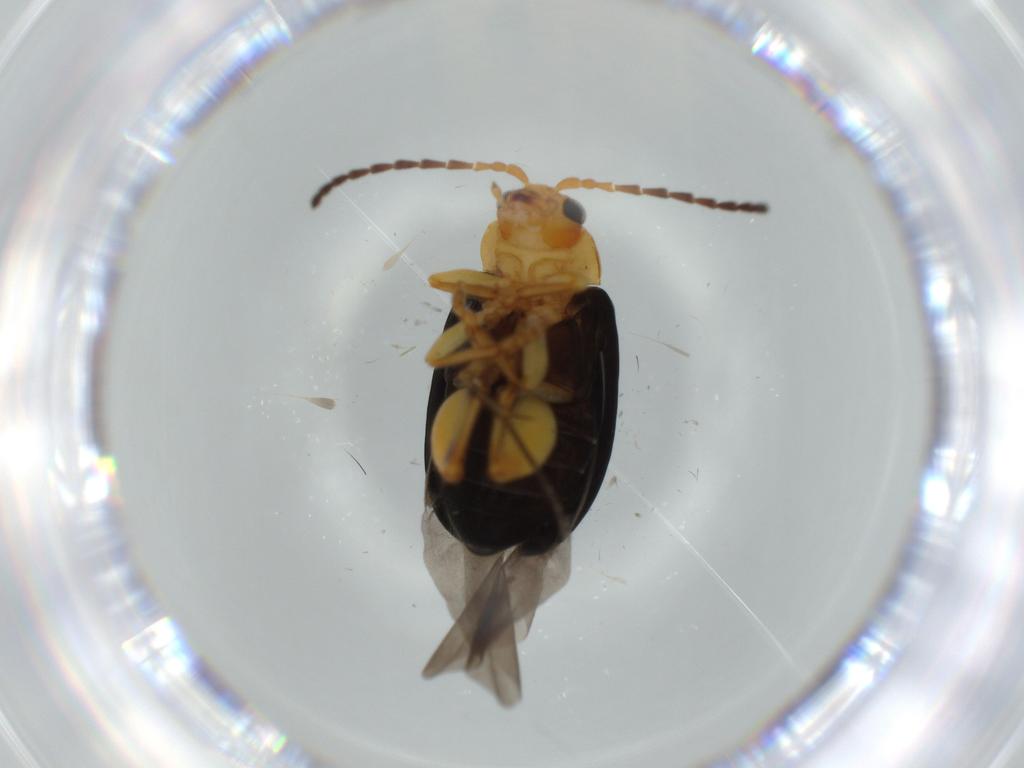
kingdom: Animalia
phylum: Arthropoda
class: Insecta
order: Coleoptera
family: Chrysomelidae
